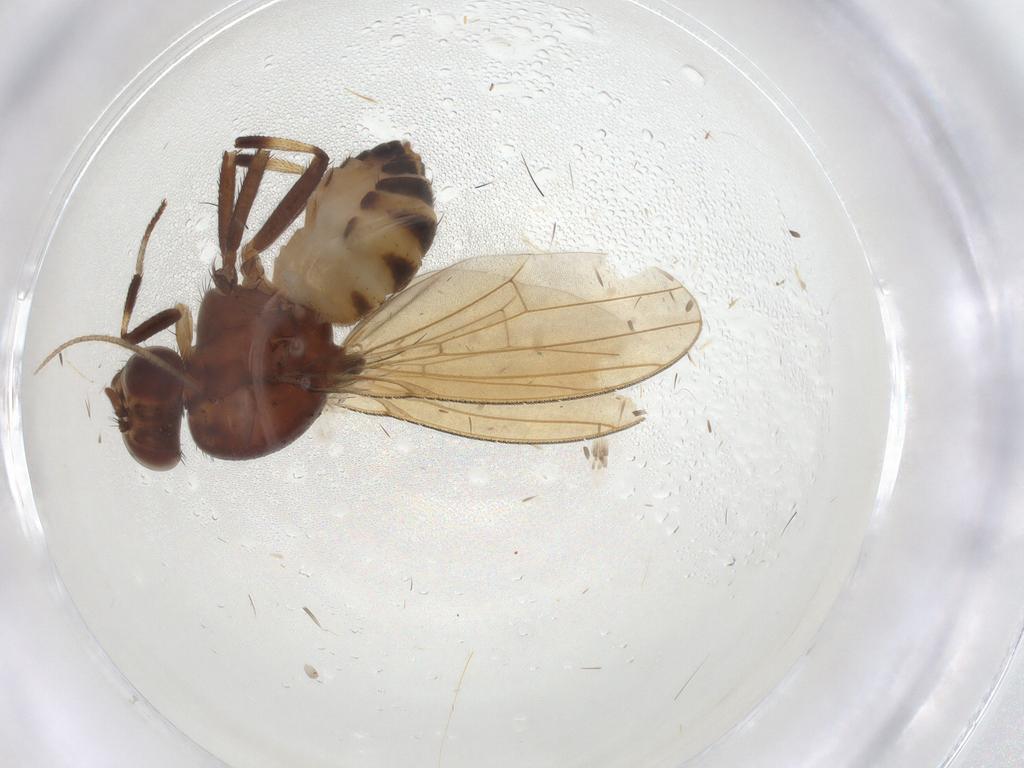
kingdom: Animalia
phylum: Arthropoda
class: Insecta
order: Diptera
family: Lauxaniidae
